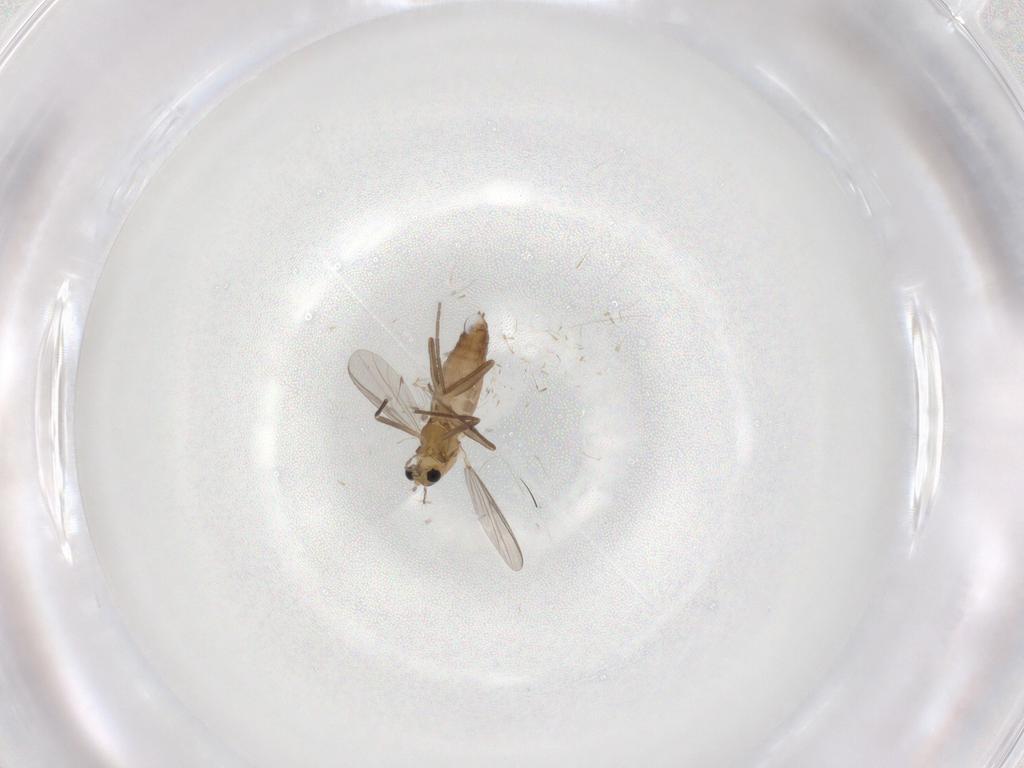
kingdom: Animalia
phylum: Arthropoda
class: Insecta
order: Diptera
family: Chironomidae
